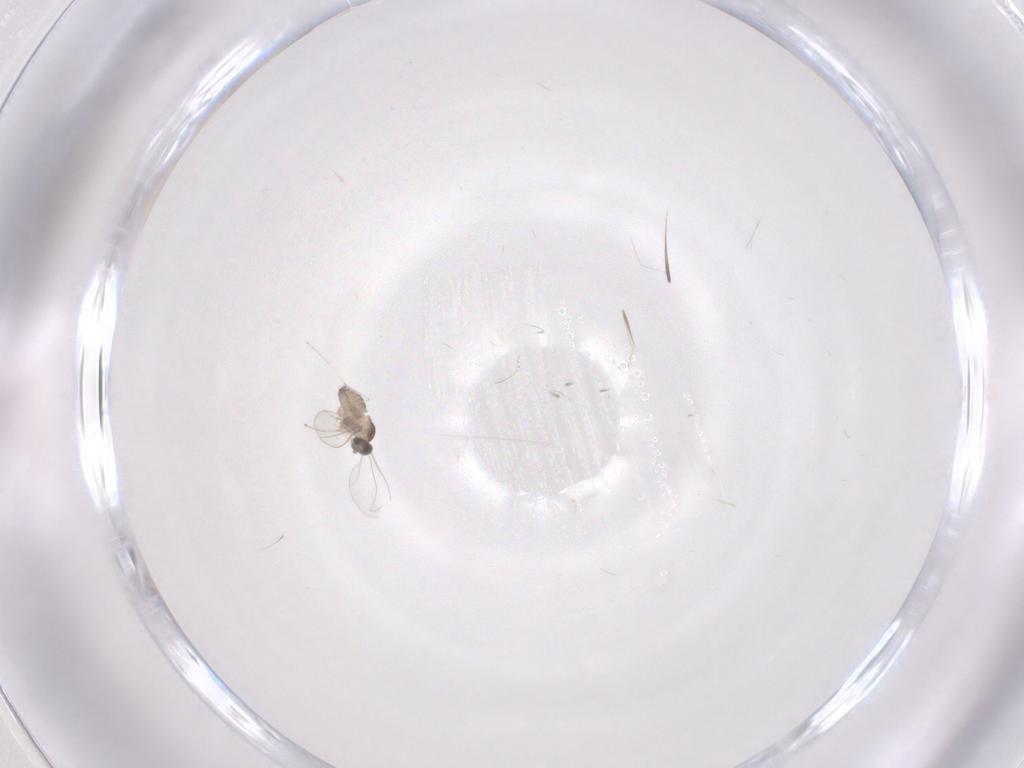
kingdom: Animalia
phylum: Arthropoda
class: Insecta
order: Diptera
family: Cecidomyiidae
